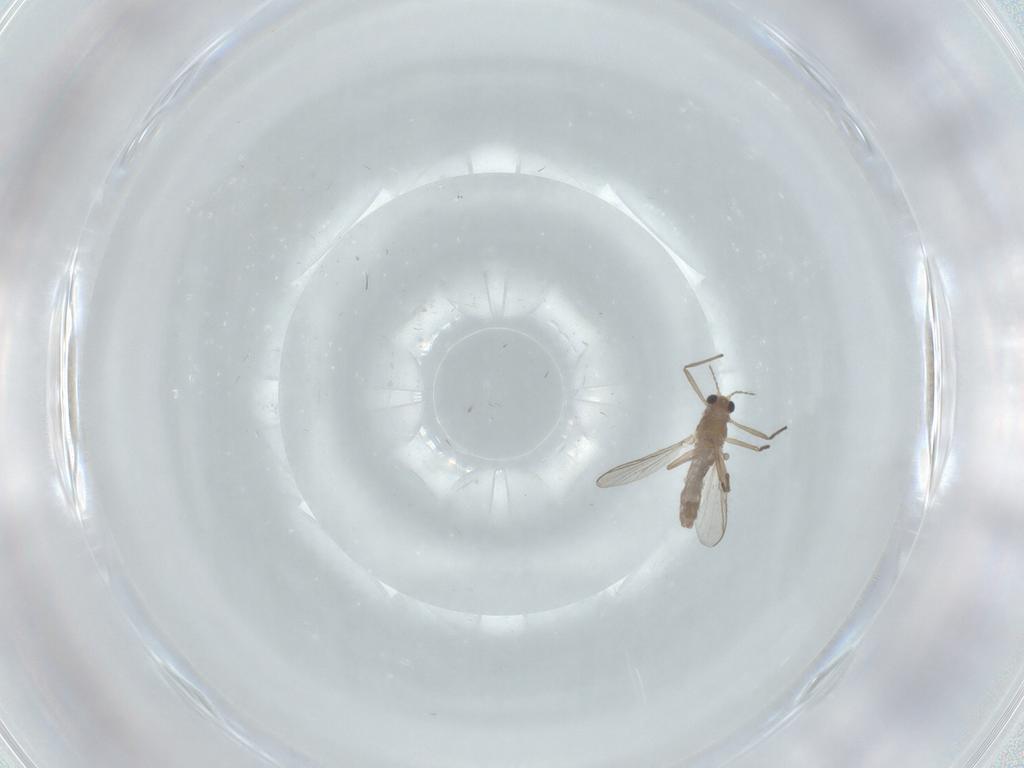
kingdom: Animalia
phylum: Arthropoda
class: Insecta
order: Diptera
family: Chironomidae
